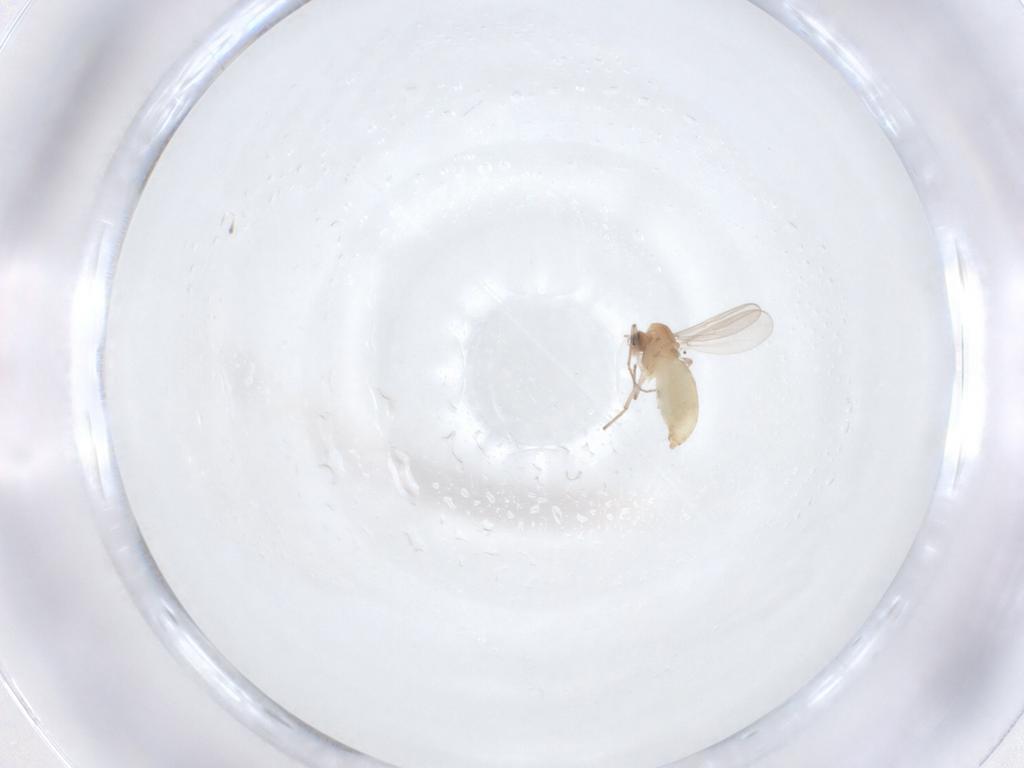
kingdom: Animalia
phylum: Arthropoda
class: Insecta
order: Diptera
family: Chironomidae
